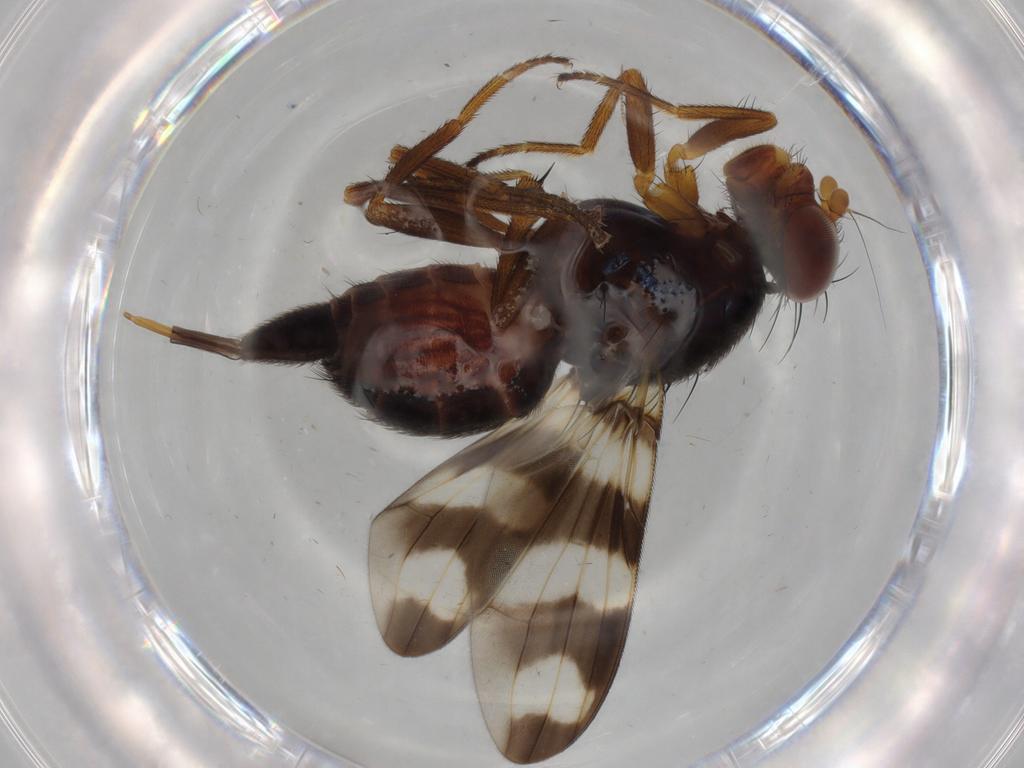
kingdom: Animalia
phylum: Arthropoda
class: Insecta
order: Diptera
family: Ulidiidae
